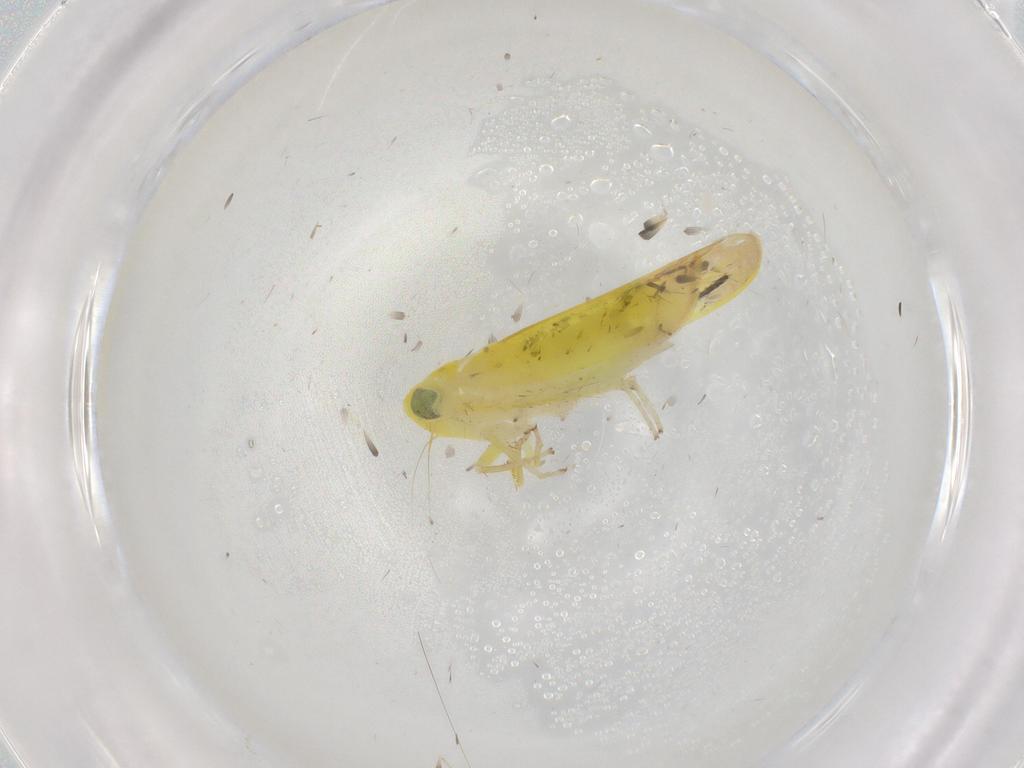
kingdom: Animalia
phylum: Arthropoda
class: Insecta
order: Hemiptera
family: Cicadellidae
